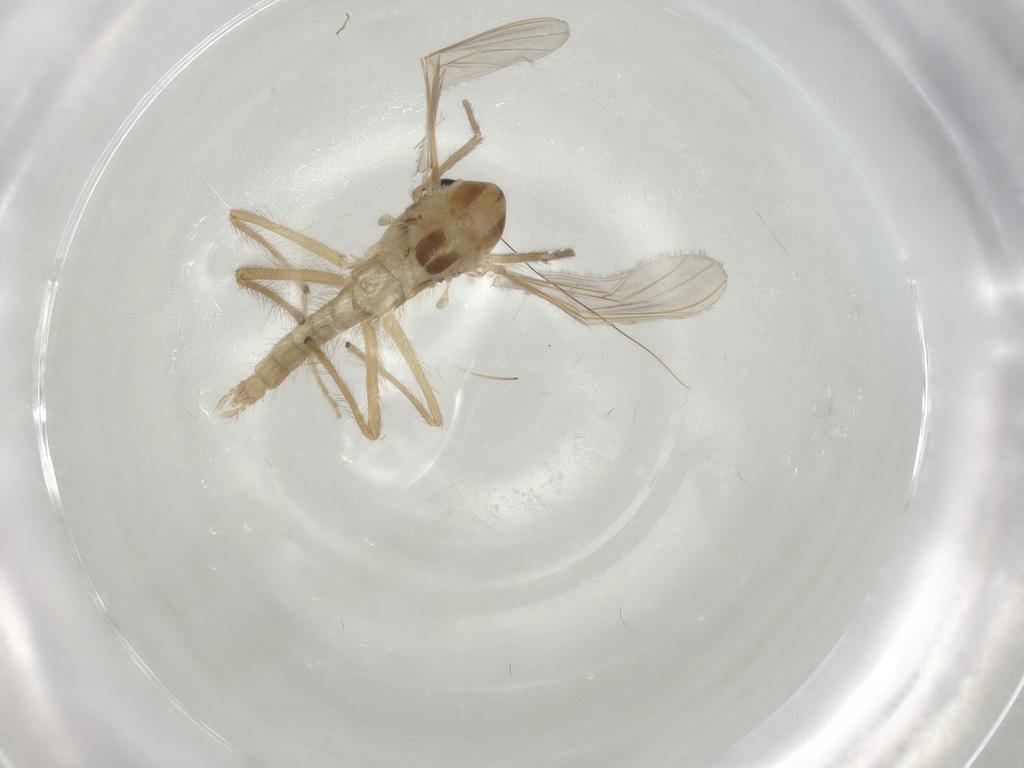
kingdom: Animalia
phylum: Arthropoda
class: Insecta
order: Diptera
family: Chironomidae
